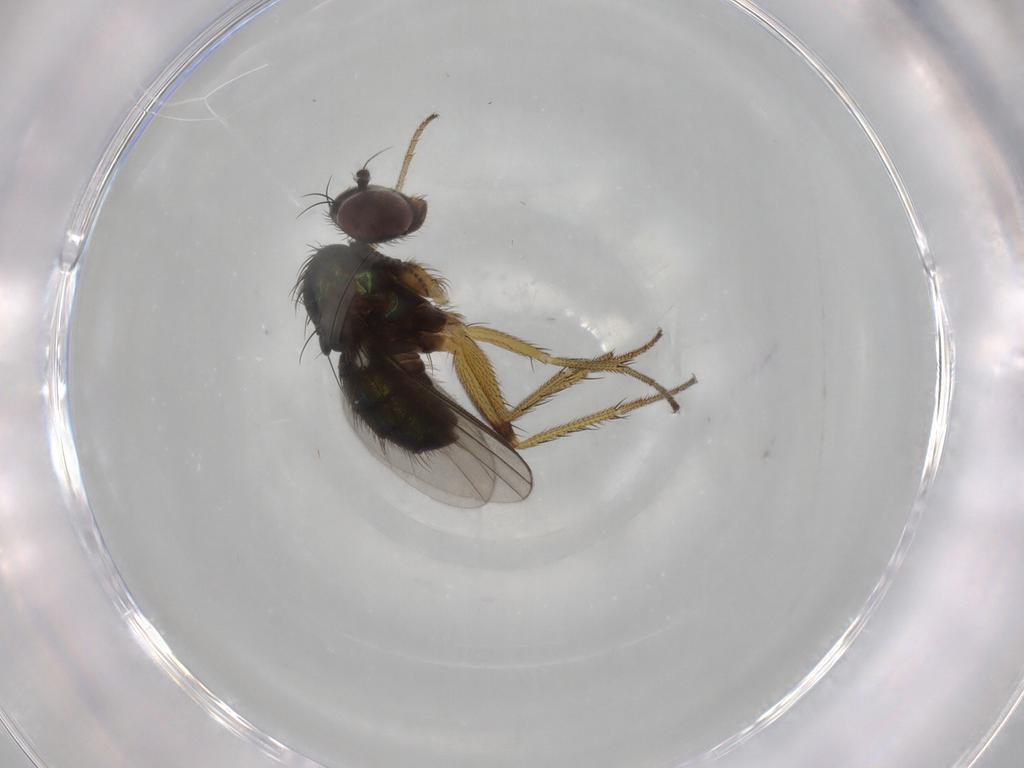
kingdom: Animalia
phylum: Arthropoda
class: Insecta
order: Diptera
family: Dolichopodidae
